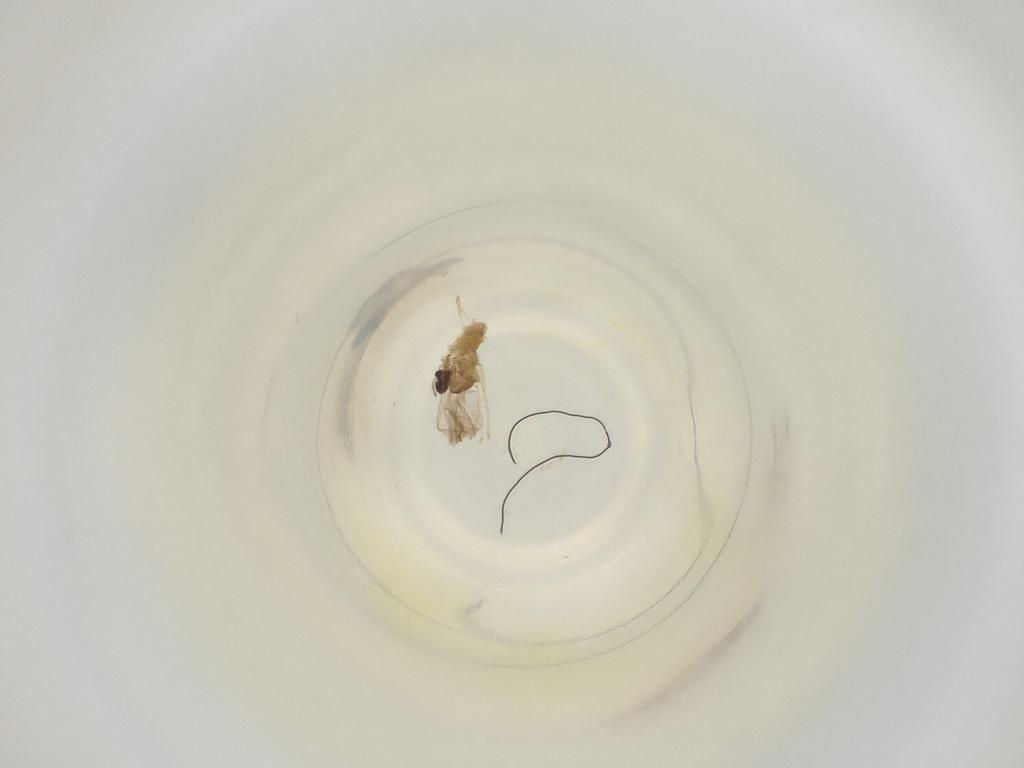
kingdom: Animalia
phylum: Arthropoda
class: Insecta
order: Diptera
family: Cecidomyiidae
